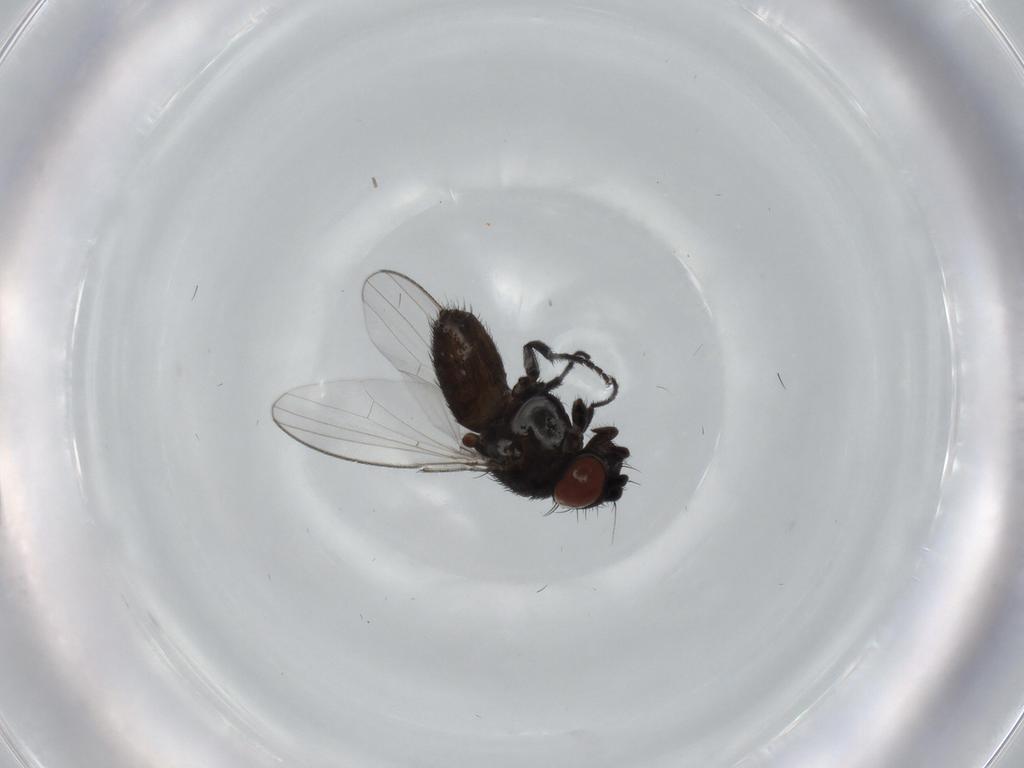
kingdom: Animalia
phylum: Arthropoda
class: Insecta
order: Diptera
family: Milichiidae
